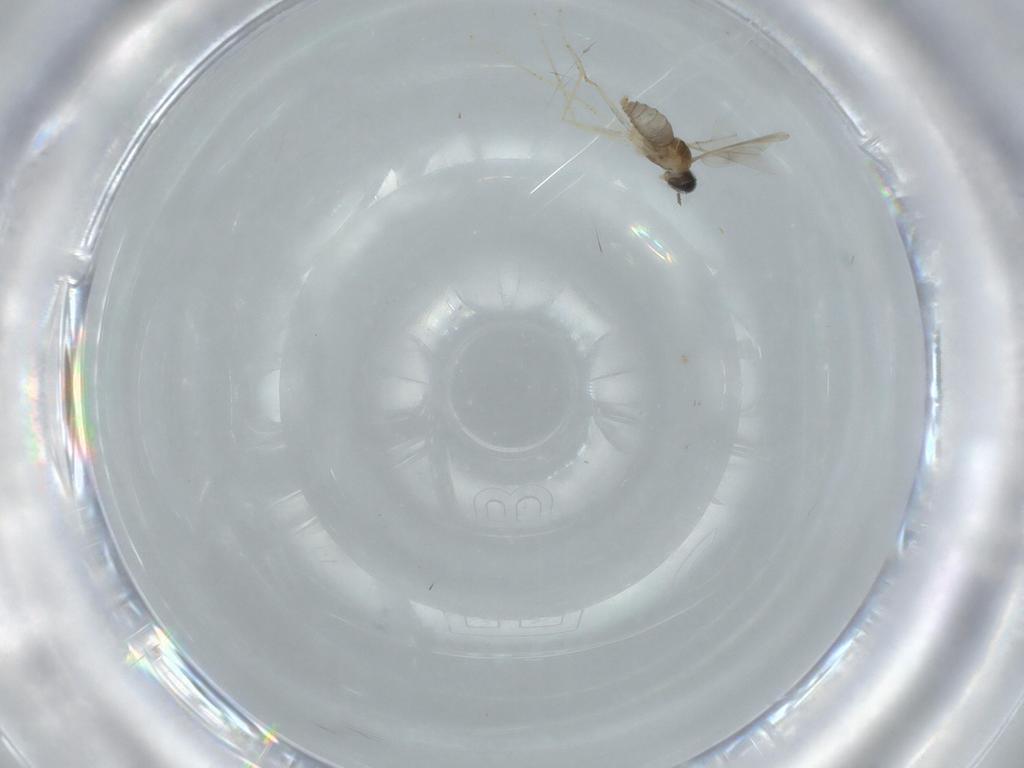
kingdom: Animalia
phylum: Arthropoda
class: Insecta
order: Diptera
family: Cecidomyiidae
